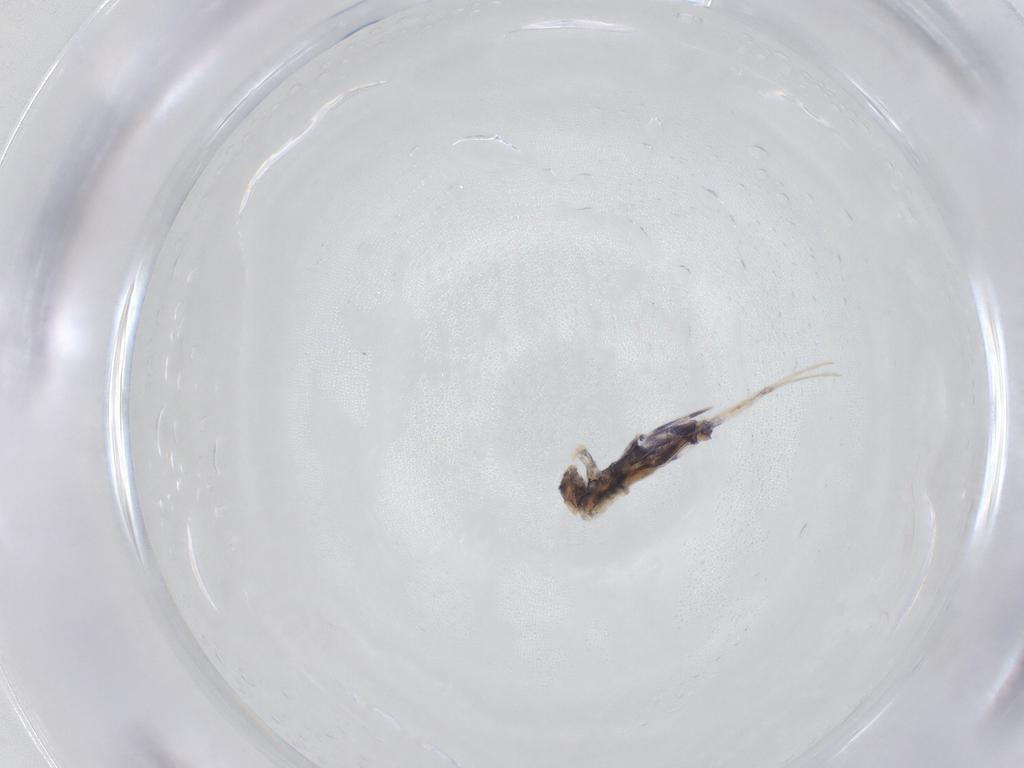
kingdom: Animalia
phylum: Arthropoda
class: Collembola
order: Entomobryomorpha
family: Entomobryidae
